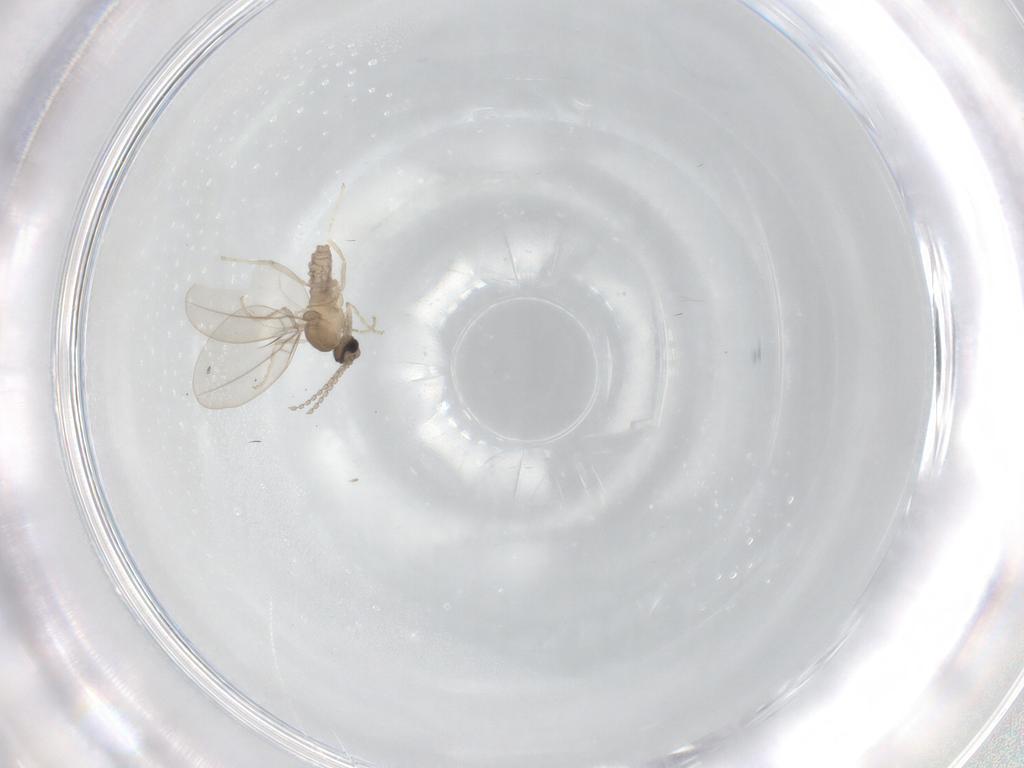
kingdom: Animalia
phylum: Arthropoda
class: Insecta
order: Diptera
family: Cecidomyiidae
